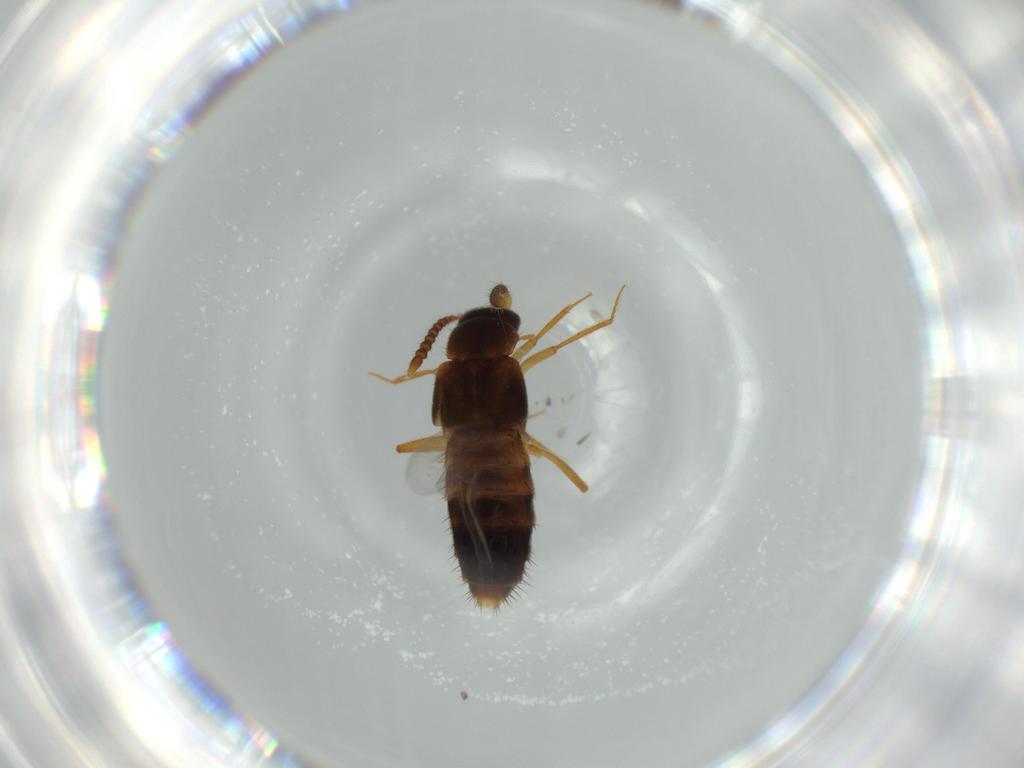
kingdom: Animalia
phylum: Arthropoda
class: Insecta
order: Coleoptera
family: Staphylinidae
